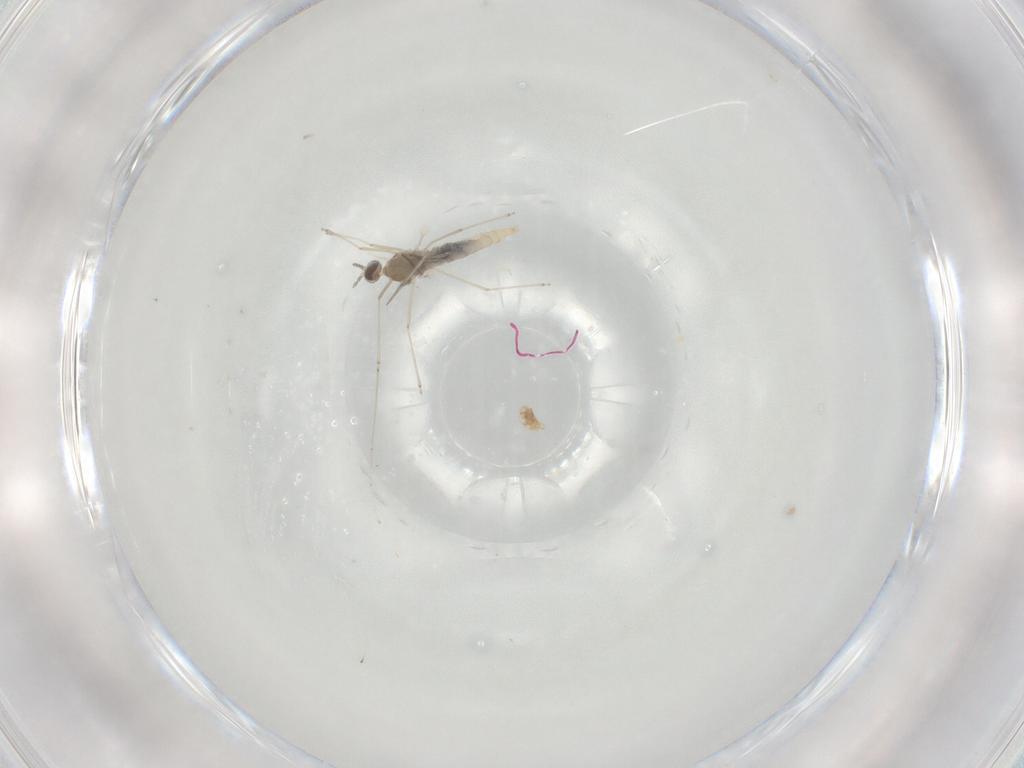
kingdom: Animalia
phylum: Arthropoda
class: Insecta
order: Diptera
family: Cecidomyiidae
